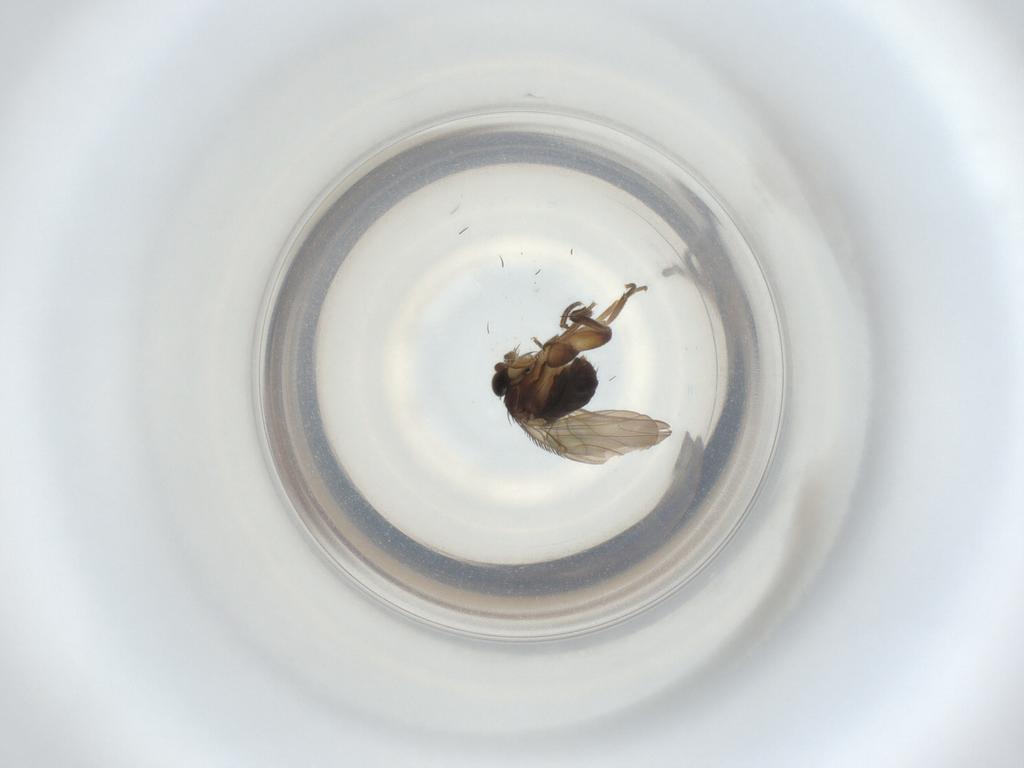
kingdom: Animalia
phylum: Arthropoda
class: Insecta
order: Diptera
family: Phoridae
